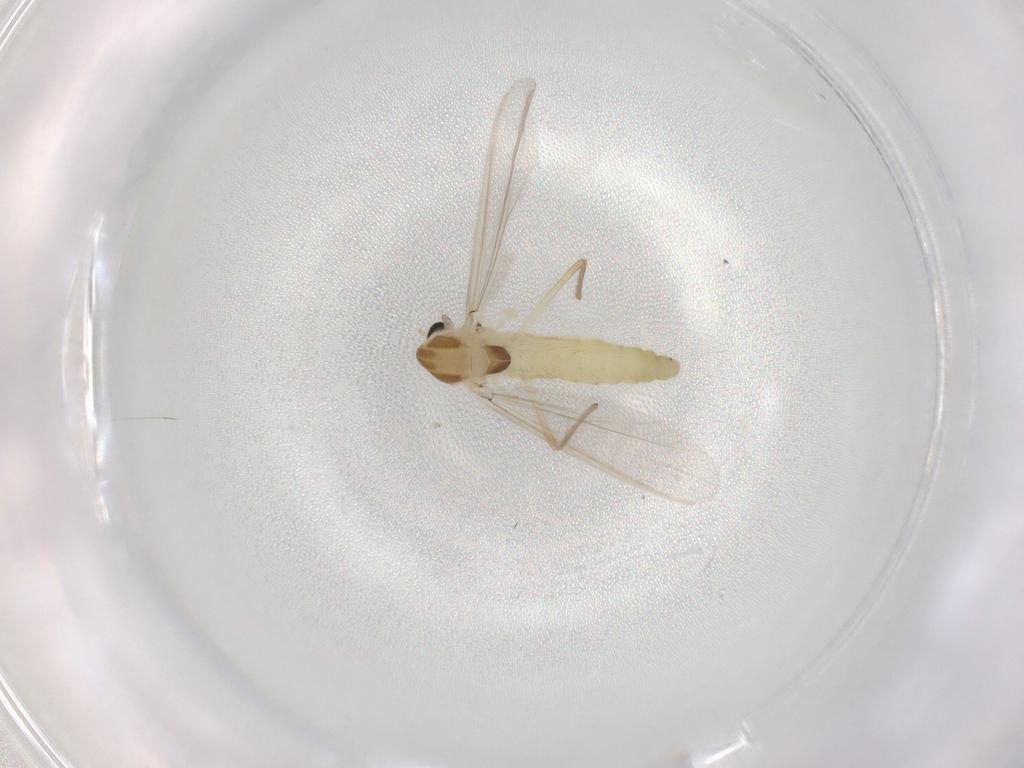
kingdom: Animalia
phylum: Arthropoda
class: Insecta
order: Diptera
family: Chironomidae
